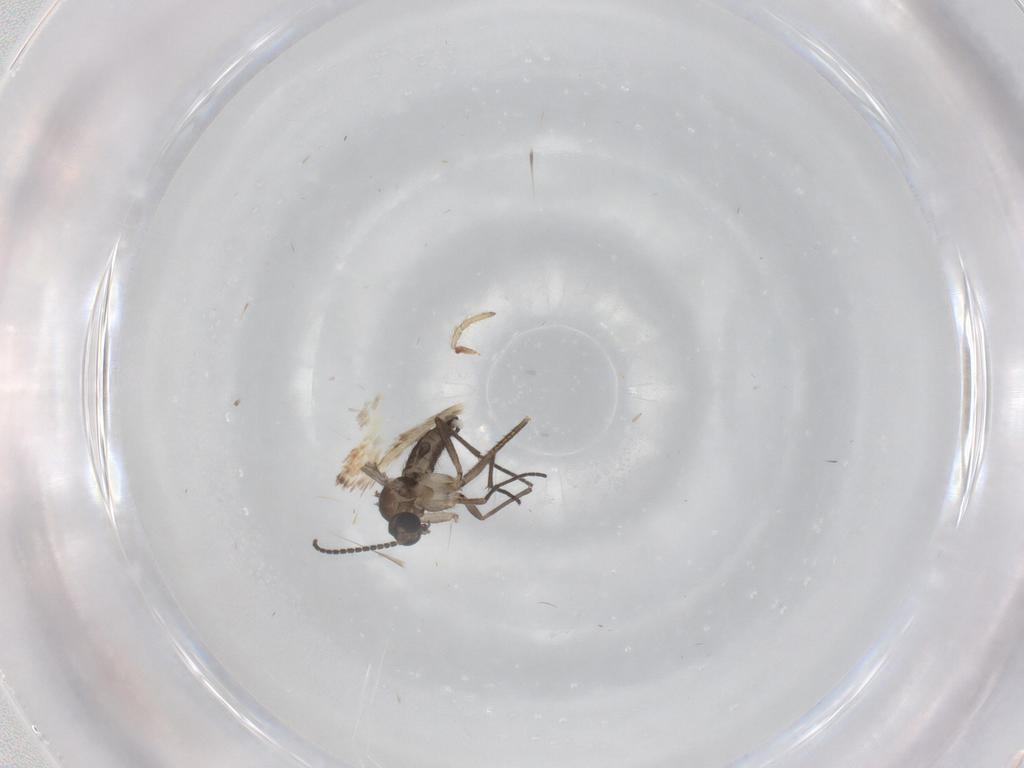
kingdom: Animalia
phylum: Arthropoda
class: Insecta
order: Diptera
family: Sciaridae
